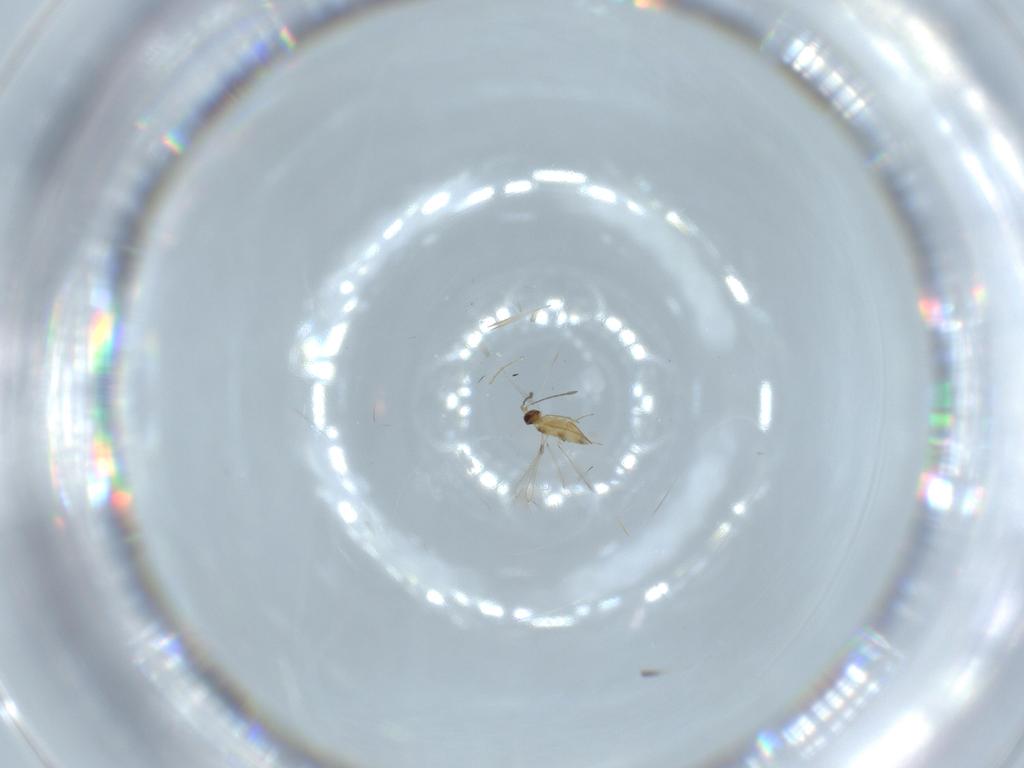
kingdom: Animalia
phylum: Arthropoda
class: Insecta
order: Hymenoptera
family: Mymaridae
